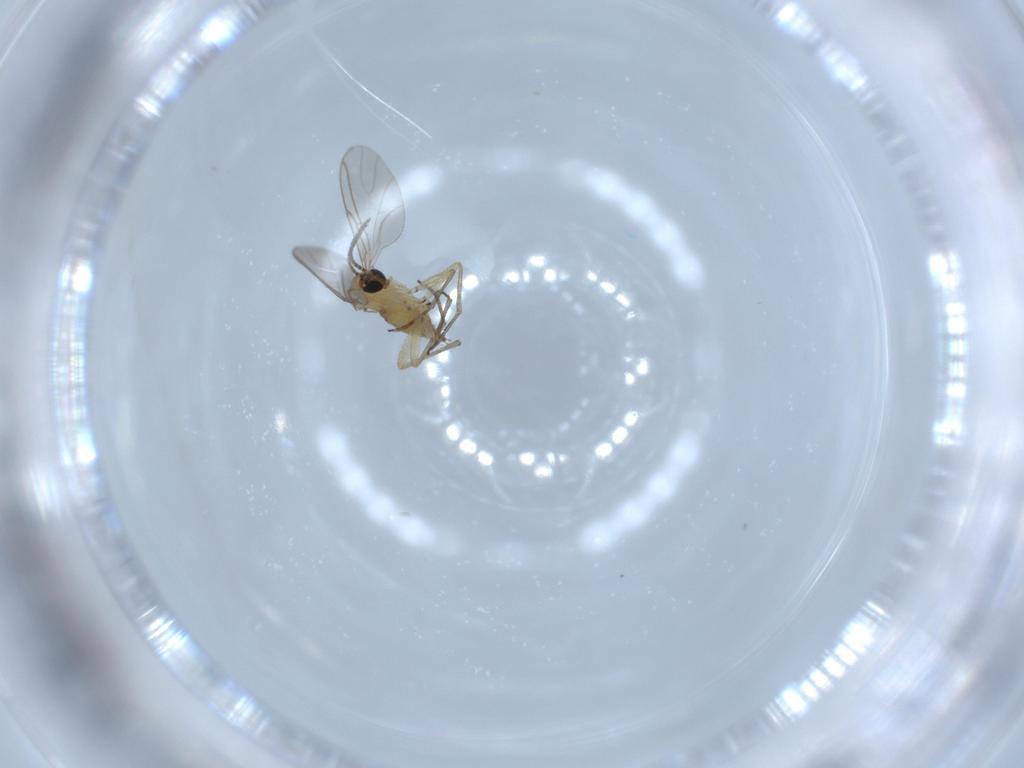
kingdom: Animalia
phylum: Arthropoda
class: Insecta
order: Diptera
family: Sciaridae
